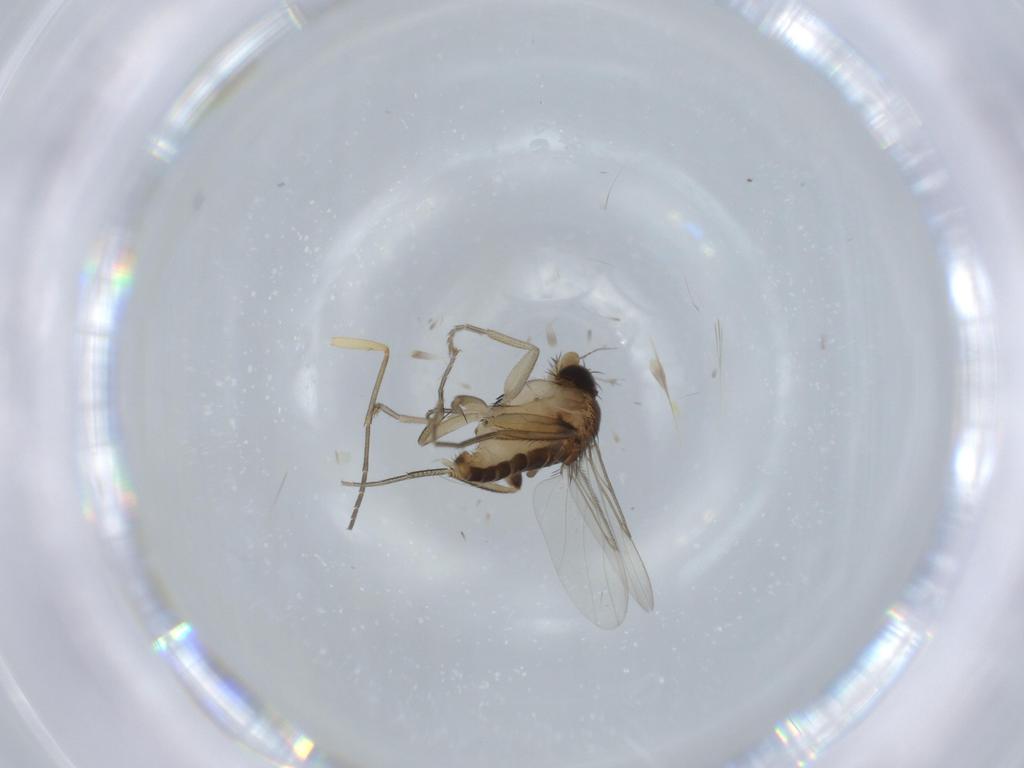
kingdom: Animalia
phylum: Arthropoda
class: Insecta
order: Diptera
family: Phoridae
